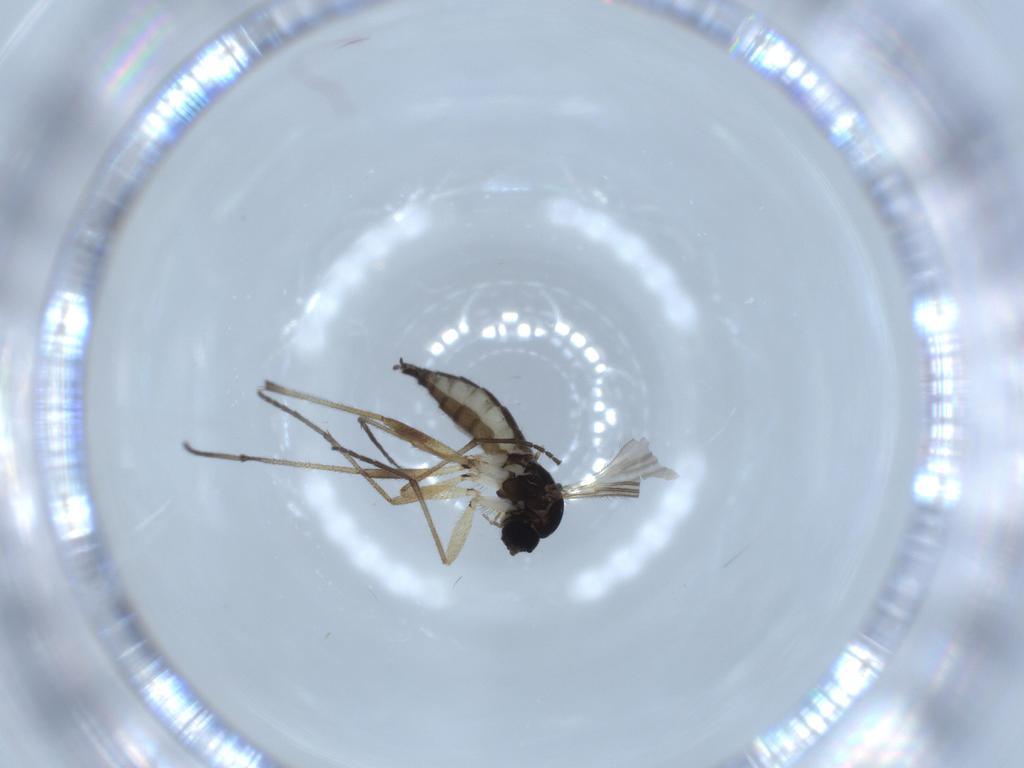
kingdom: Animalia
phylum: Arthropoda
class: Insecta
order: Diptera
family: Sciaridae
